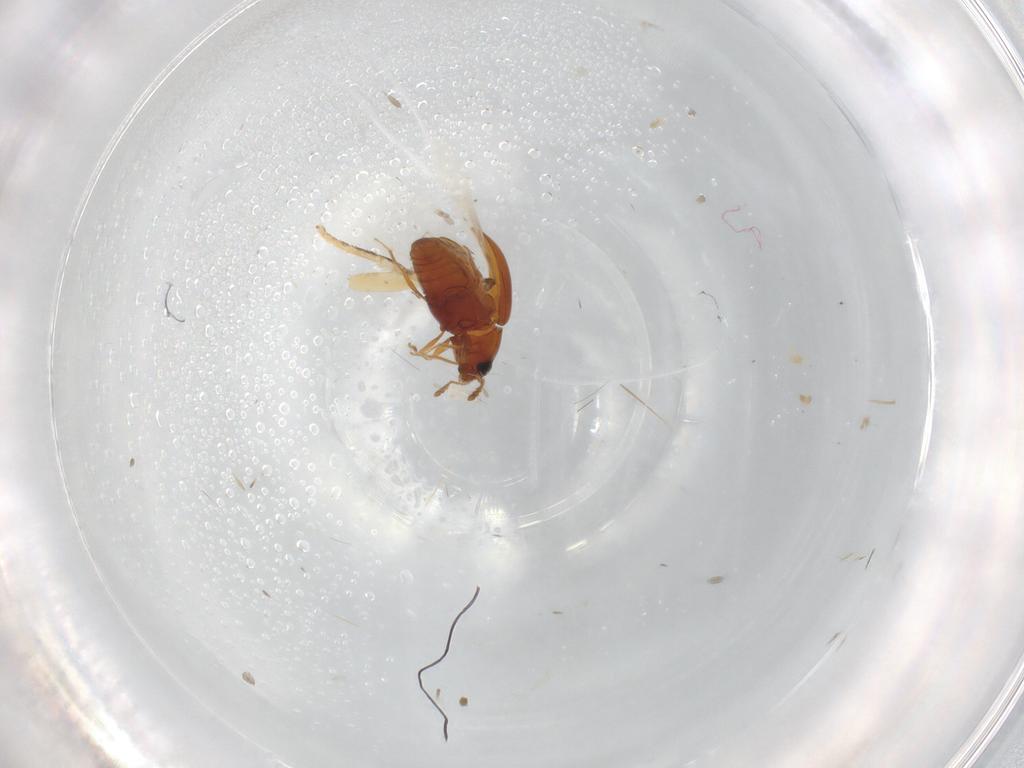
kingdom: Animalia
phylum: Arthropoda
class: Insecta
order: Coleoptera
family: Cryptophagidae
